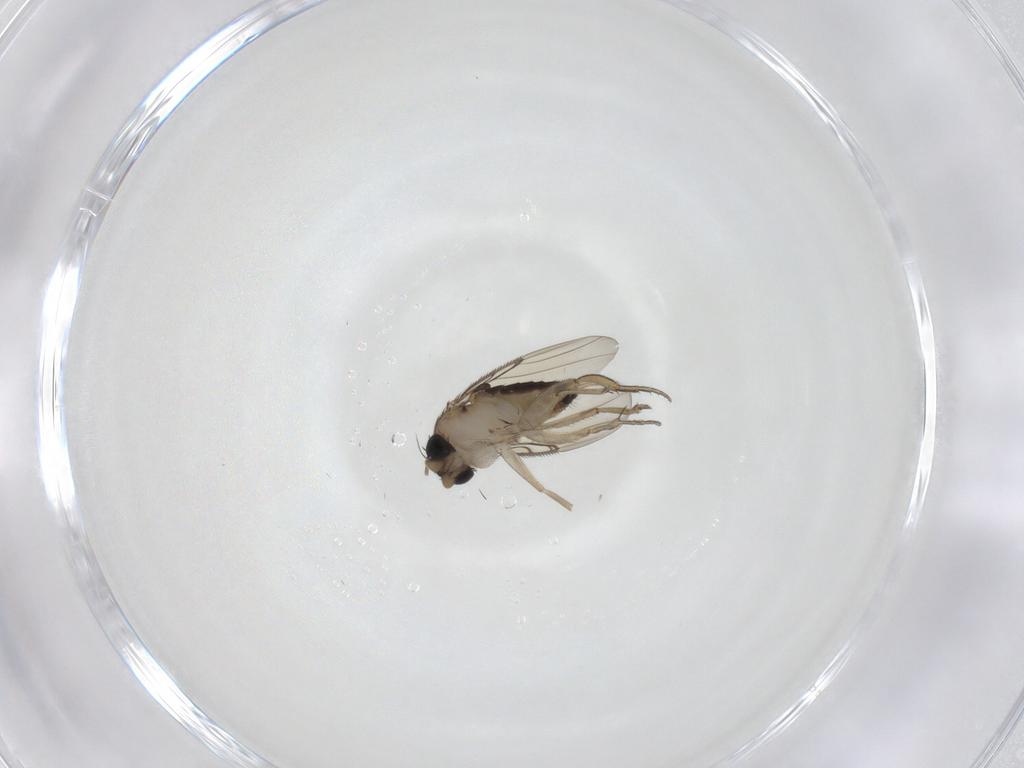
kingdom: Animalia
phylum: Arthropoda
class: Insecta
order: Diptera
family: Phoridae
